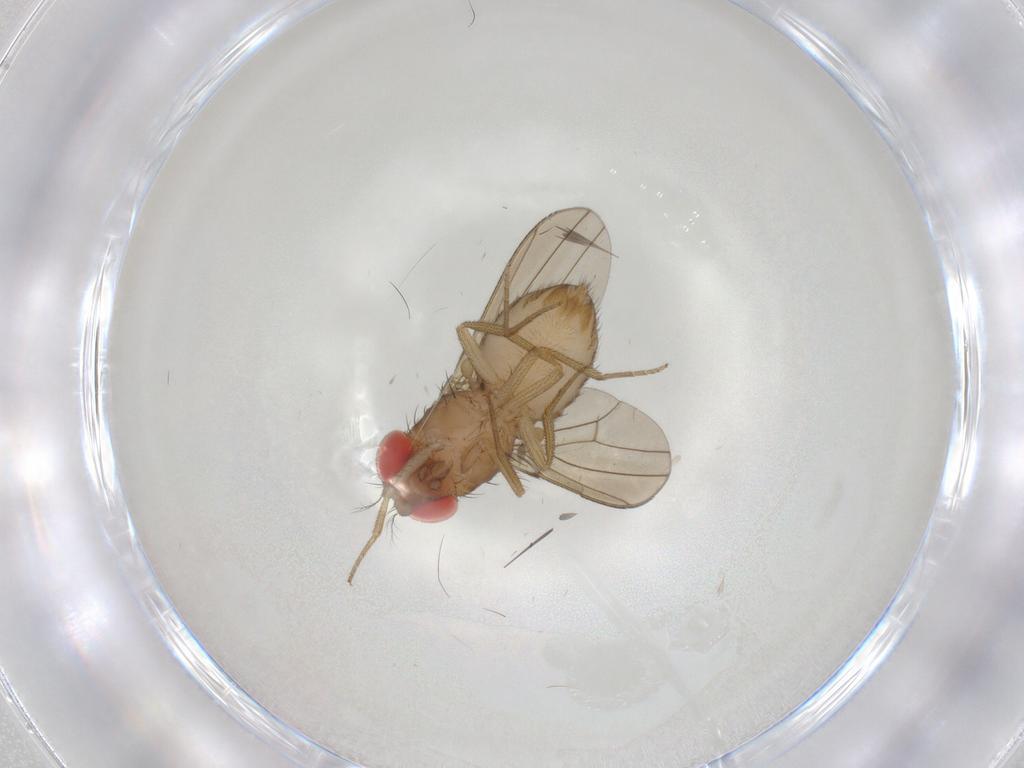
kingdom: Animalia
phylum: Arthropoda
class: Insecta
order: Diptera
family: Drosophilidae
